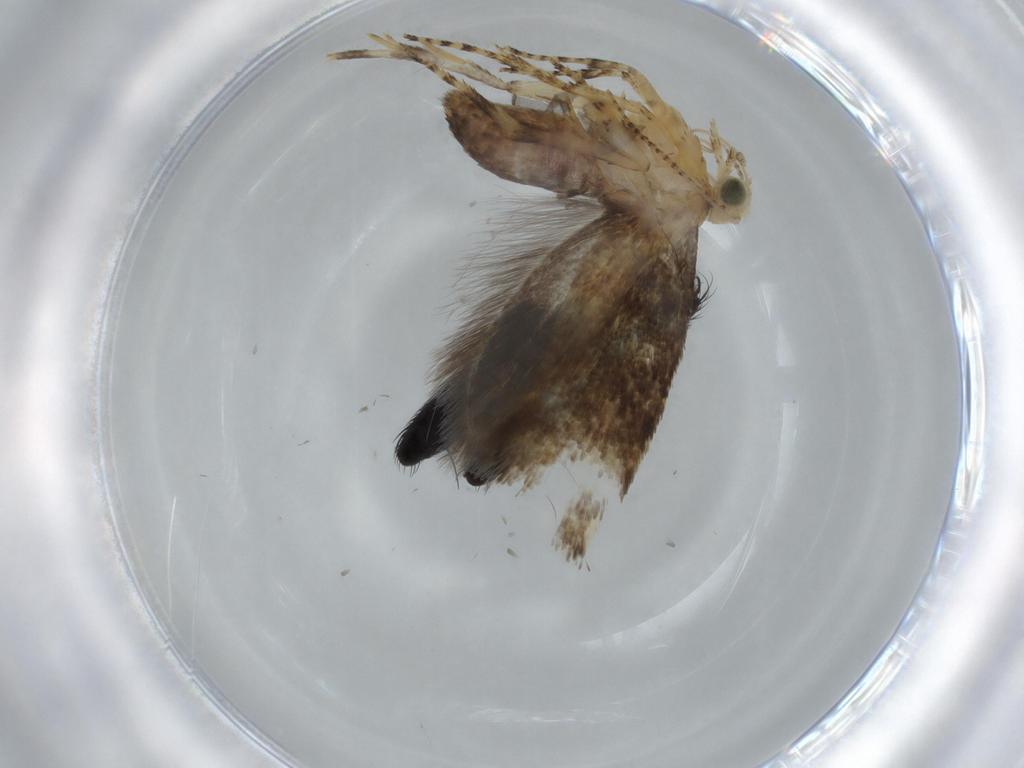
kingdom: Animalia
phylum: Arthropoda
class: Insecta
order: Lepidoptera
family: Glyphipterigidae
